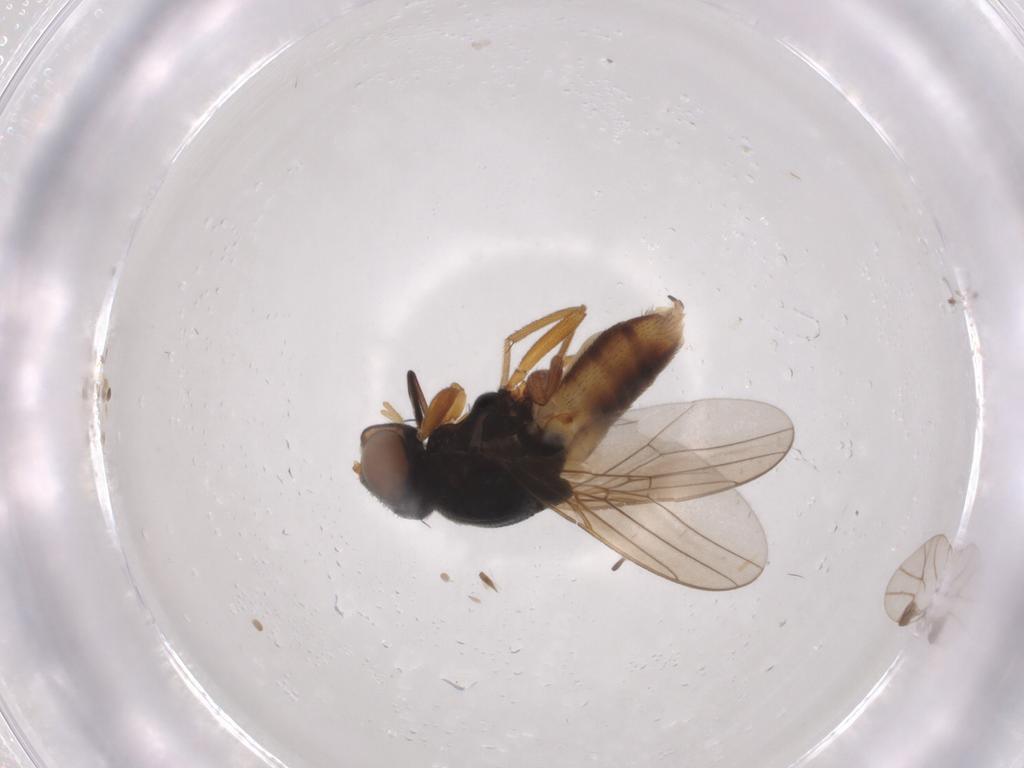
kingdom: Animalia
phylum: Arthropoda
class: Insecta
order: Diptera
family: Chloropidae
